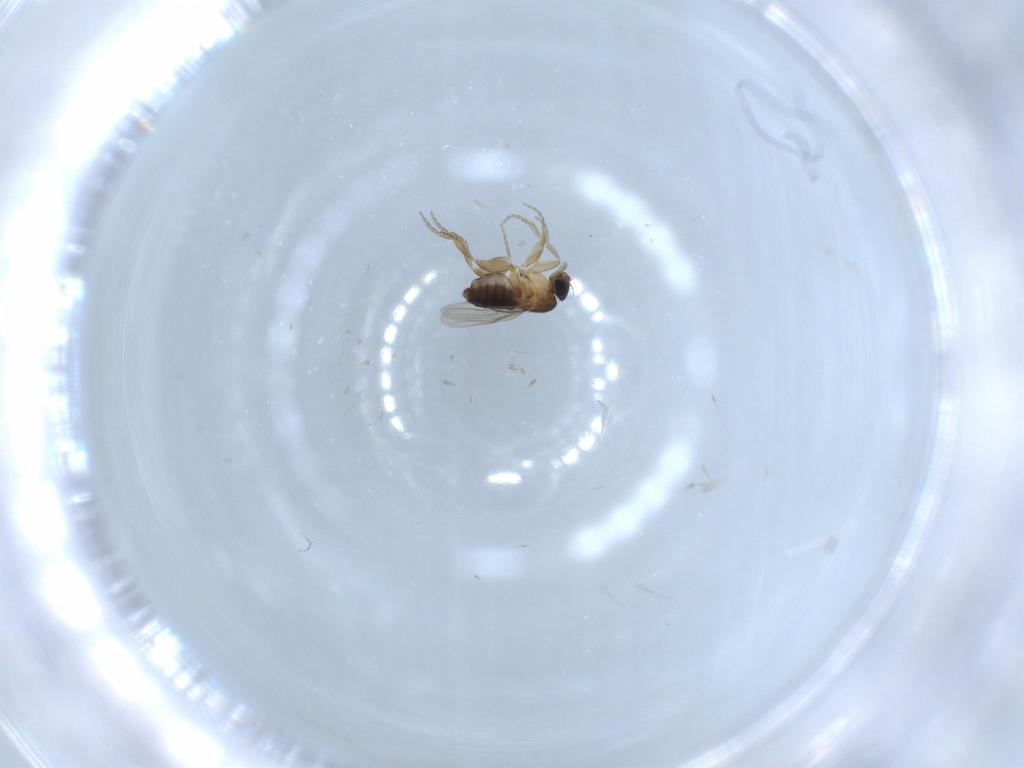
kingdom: Animalia
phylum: Arthropoda
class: Insecta
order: Diptera
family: Phoridae
